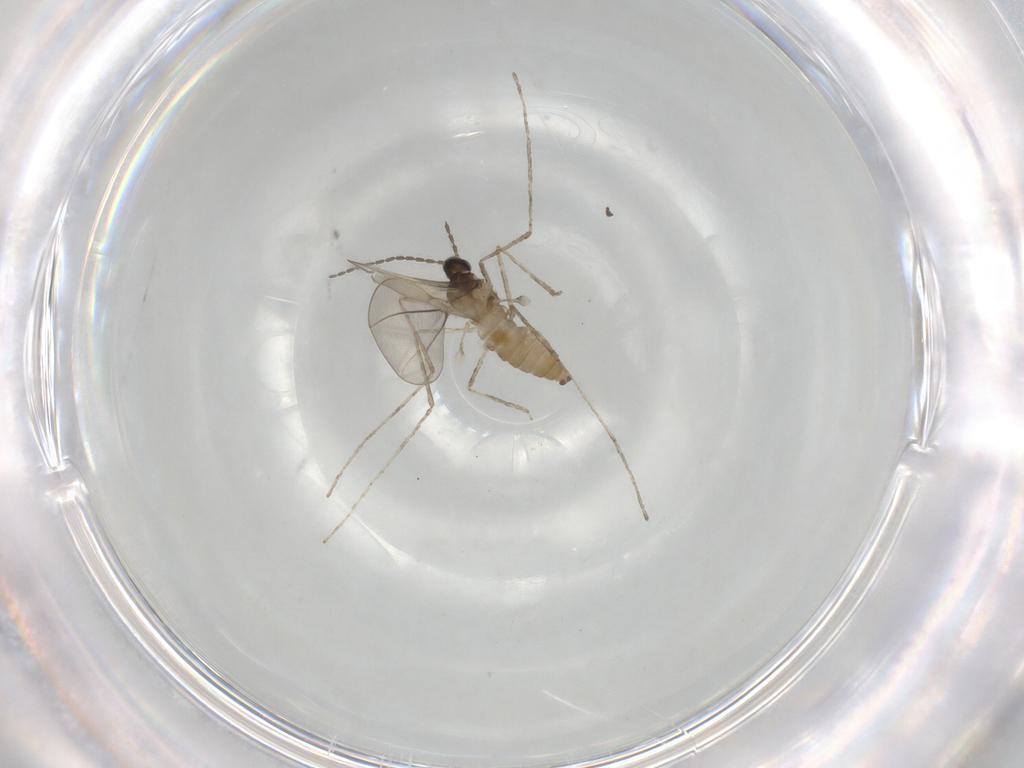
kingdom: Animalia
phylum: Arthropoda
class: Insecta
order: Diptera
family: Cecidomyiidae
